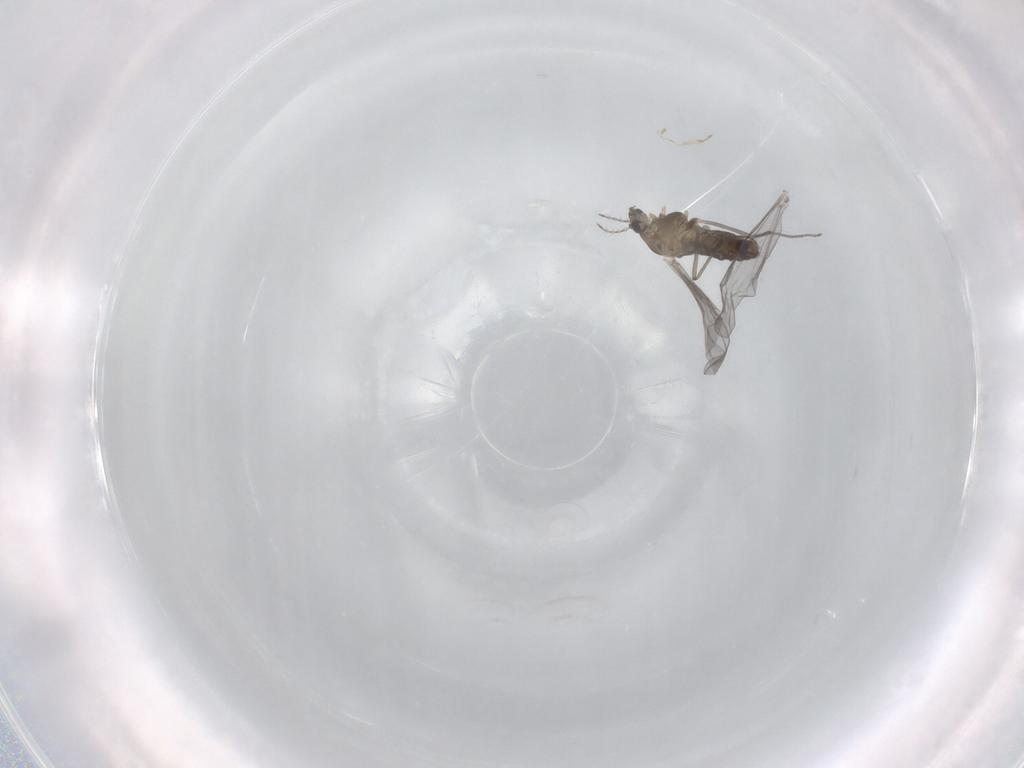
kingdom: Animalia
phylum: Arthropoda
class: Insecta
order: Diptera
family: Chironomidae
